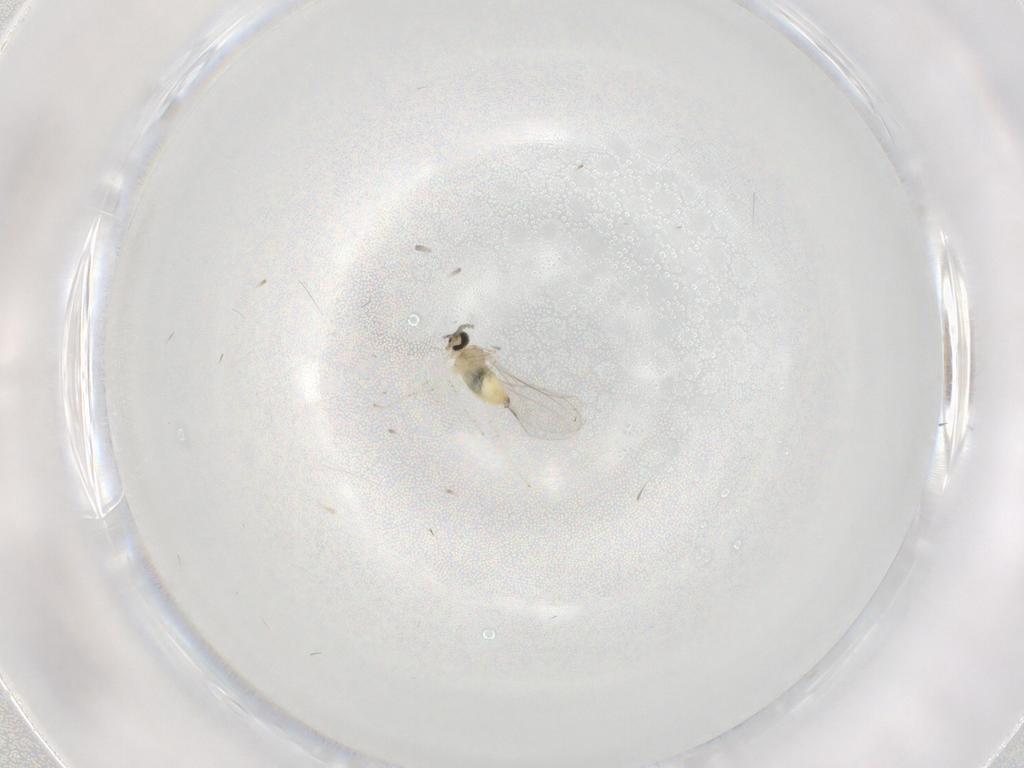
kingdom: Animalia
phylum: Arthropoda
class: Insecta
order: Diptera
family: Cecidomyiidae
